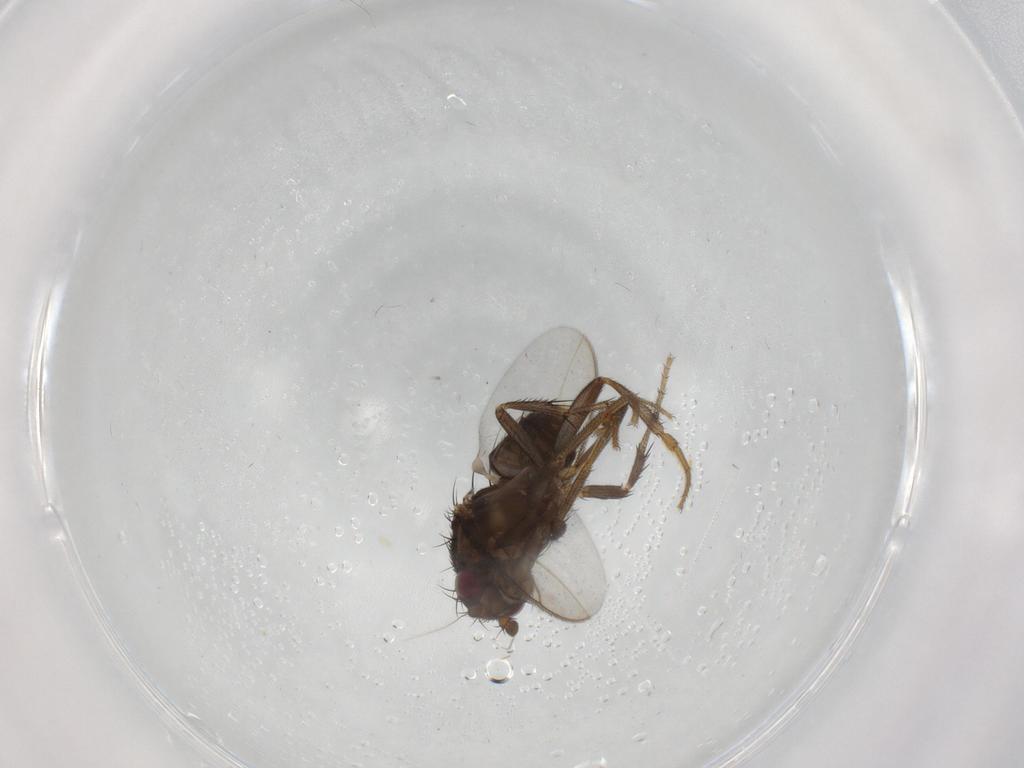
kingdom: Animalia
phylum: Arthropoda
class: Insecta
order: Diptera
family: Sphaeroceridae
